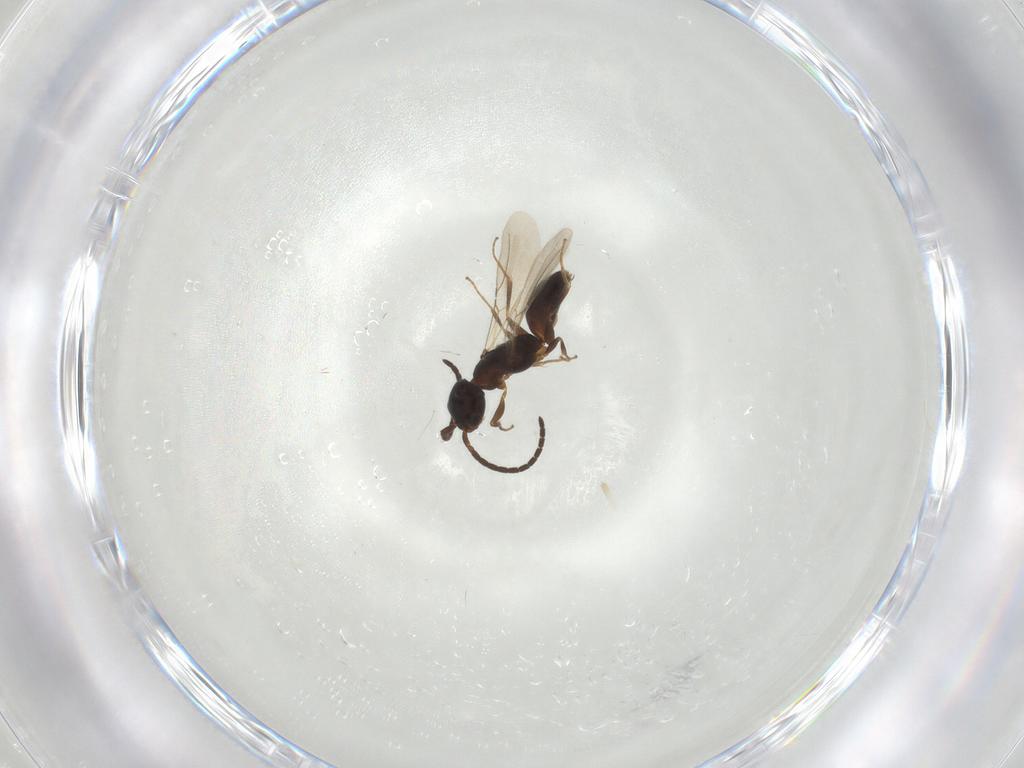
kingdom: Animalia
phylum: Arthropoda
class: Insecta
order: Hymenoptera
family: Bethylidae
